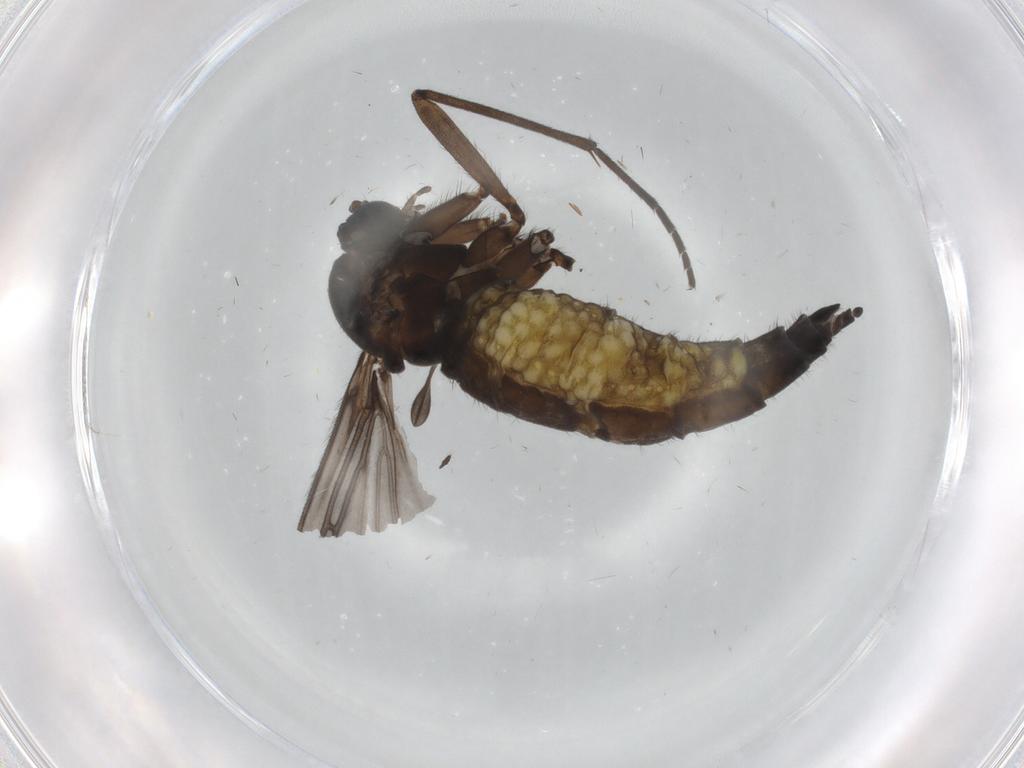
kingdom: Animalia
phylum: Arthropoda
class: Insecta
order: Diptera
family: Sciaridae
